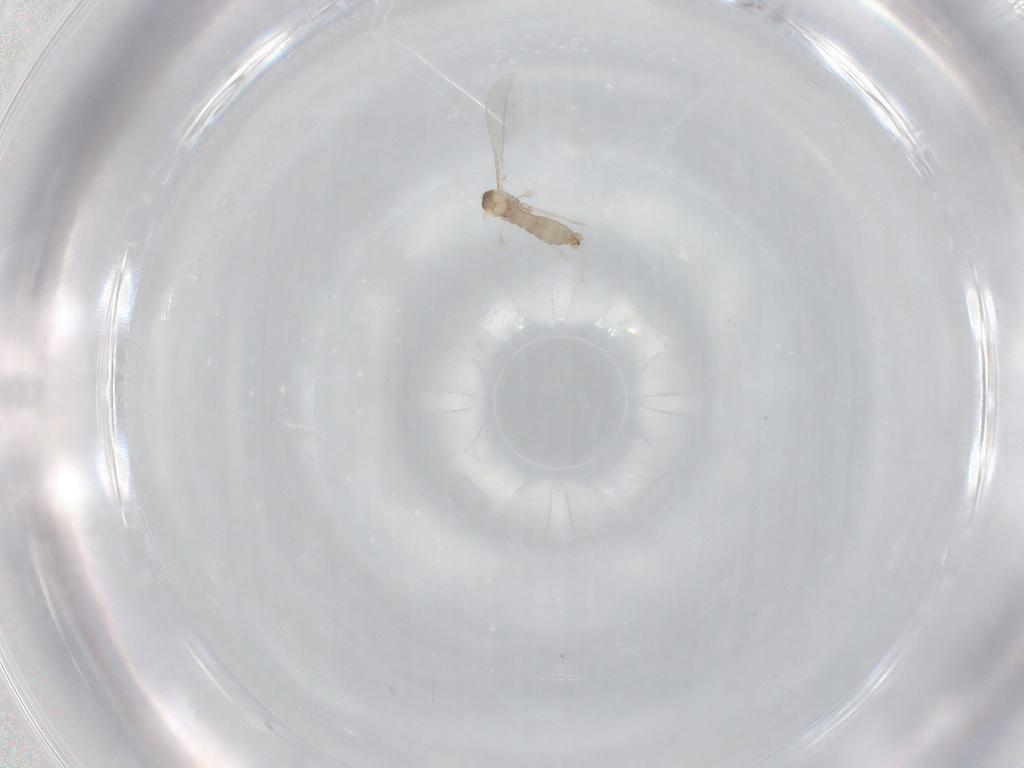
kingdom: Animalia
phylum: Arthropoda
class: Insecta
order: Diptera
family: Cecidomyiidae
